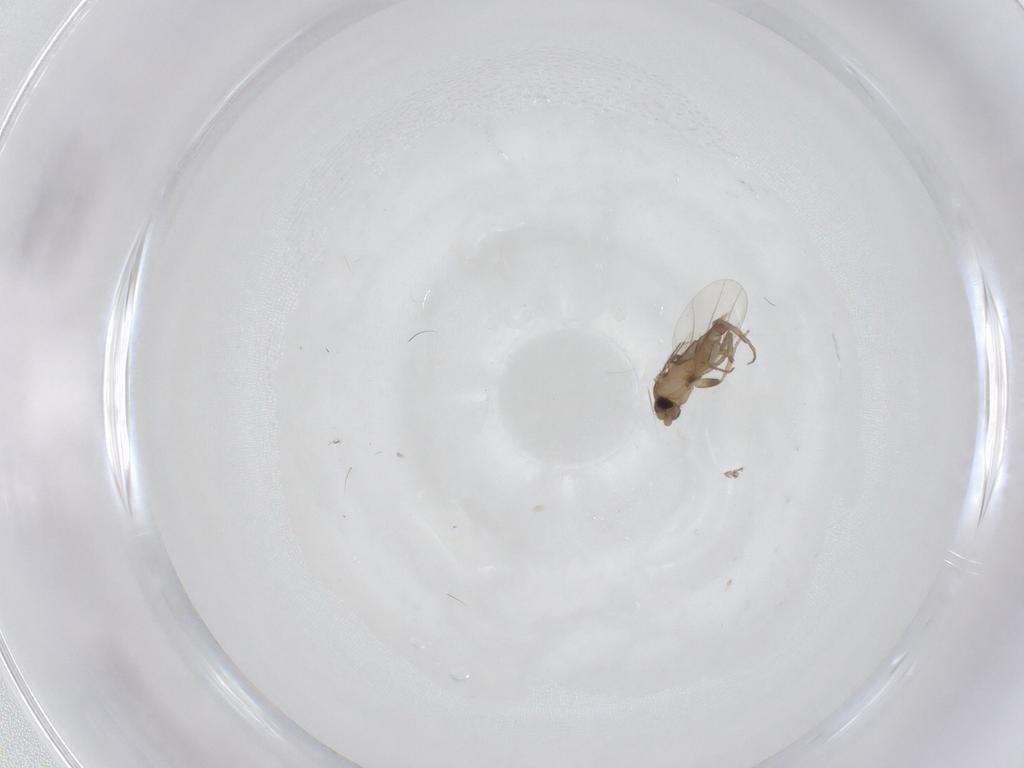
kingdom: Animalia
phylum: Arthropoda
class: Insecta
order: Diptera
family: Phoridae
